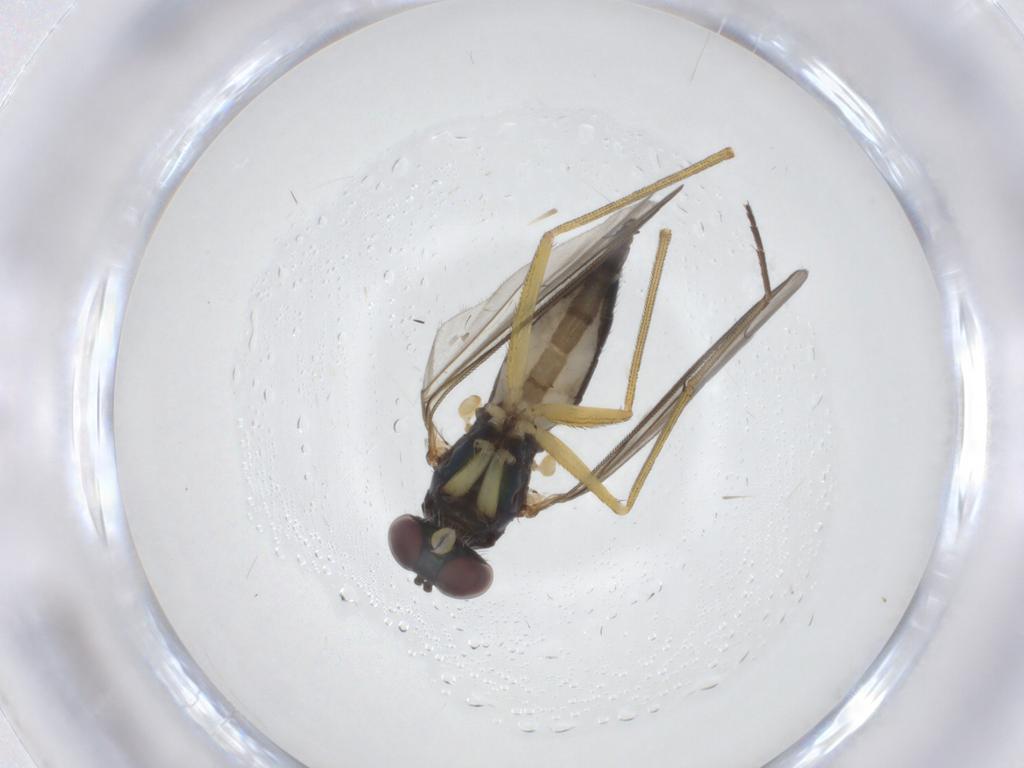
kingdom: Animalia
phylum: Arthropoda
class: Insecta
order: Diptera
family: Dolichopodidae
